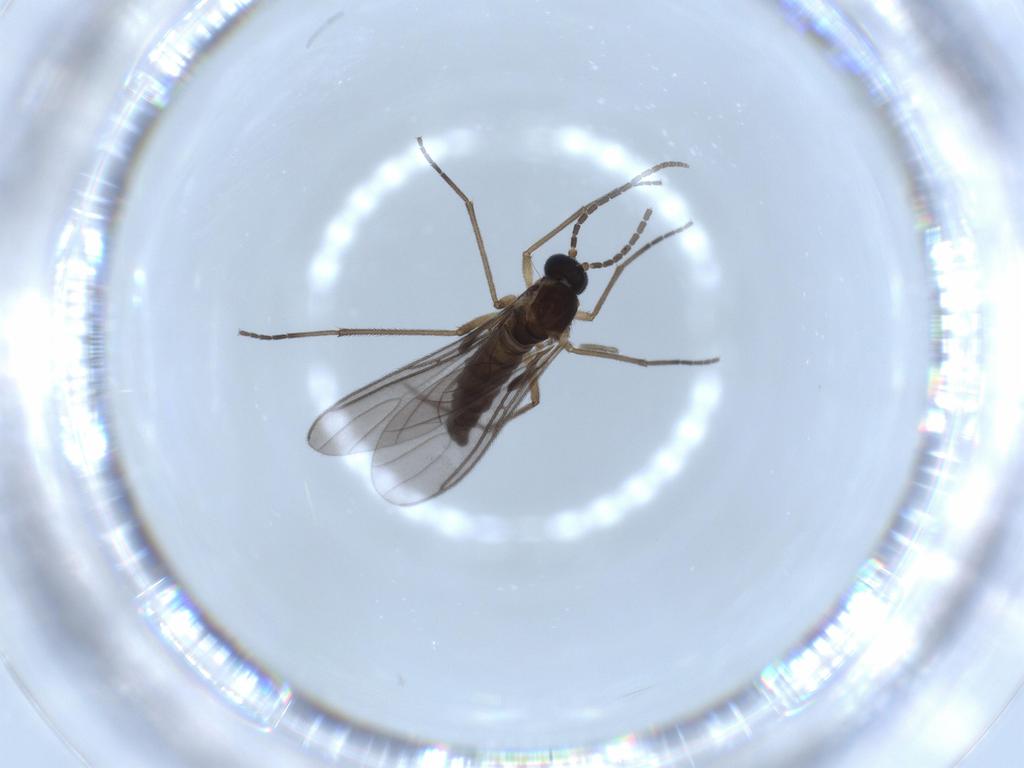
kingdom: Animalia
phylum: Arthropoda
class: Insecta
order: Diptera
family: Sciaridae
